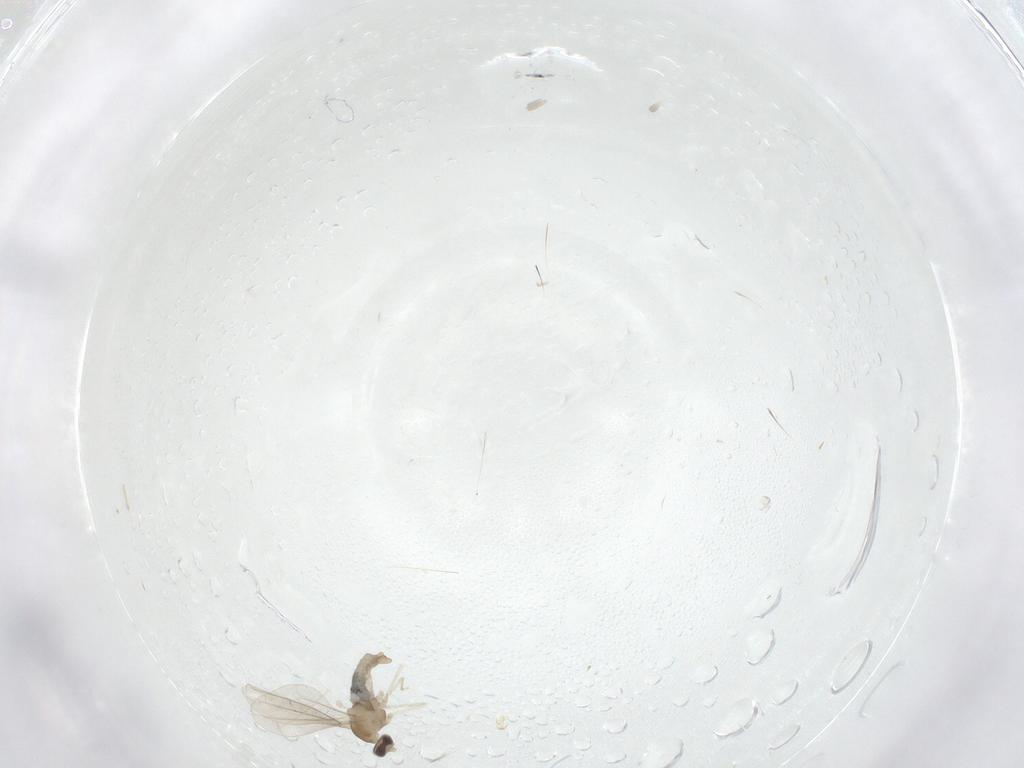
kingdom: Animalia
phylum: Arthropoda
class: Insecta
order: Diptera
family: Cecidomyiidae
